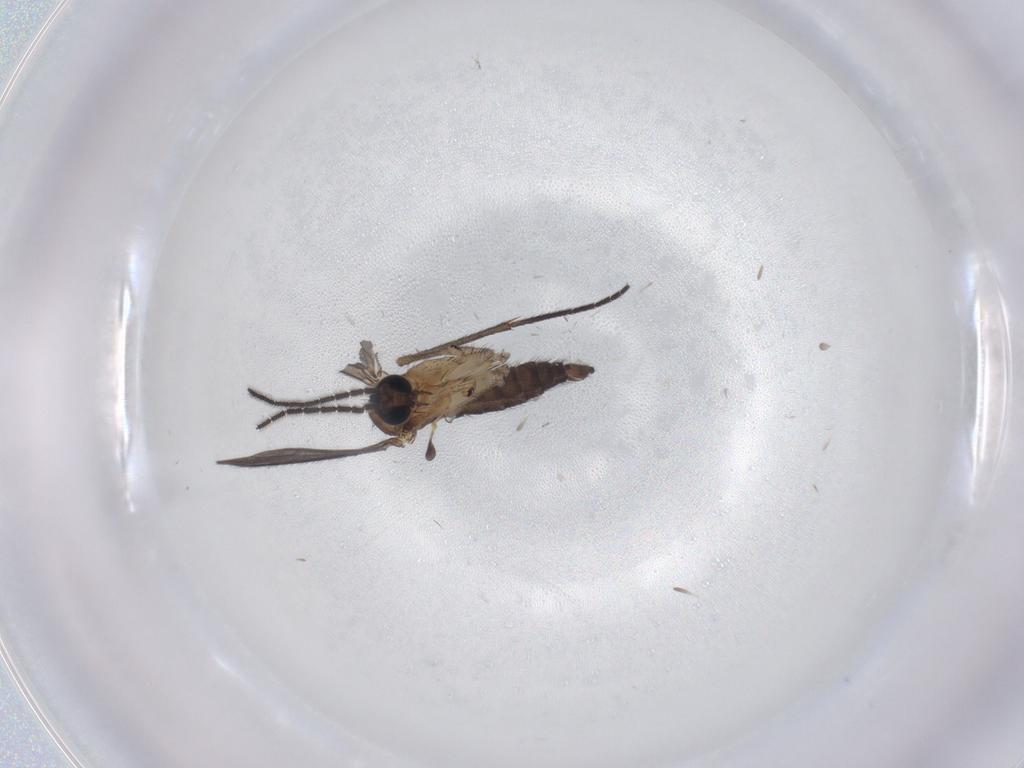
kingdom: Animalia
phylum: Arthropoda
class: Insecta
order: Diptera
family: Sciaridae
